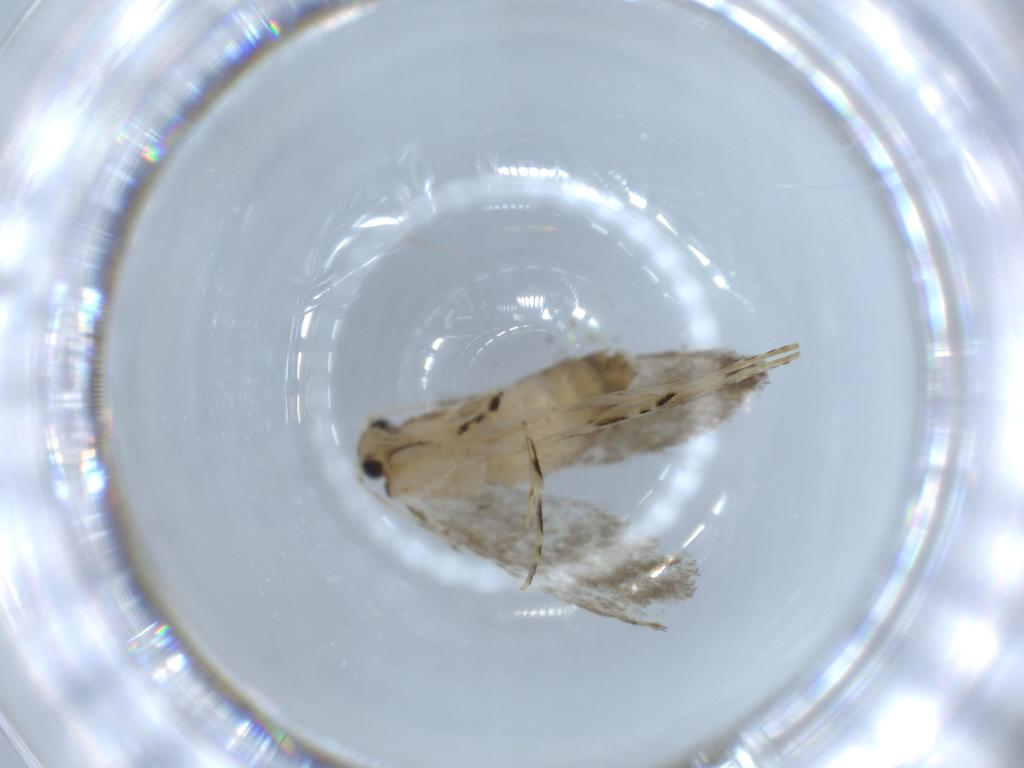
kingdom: Animalia
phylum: Arthropoda
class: Insecta
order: Lepidoptera
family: Tineidae
